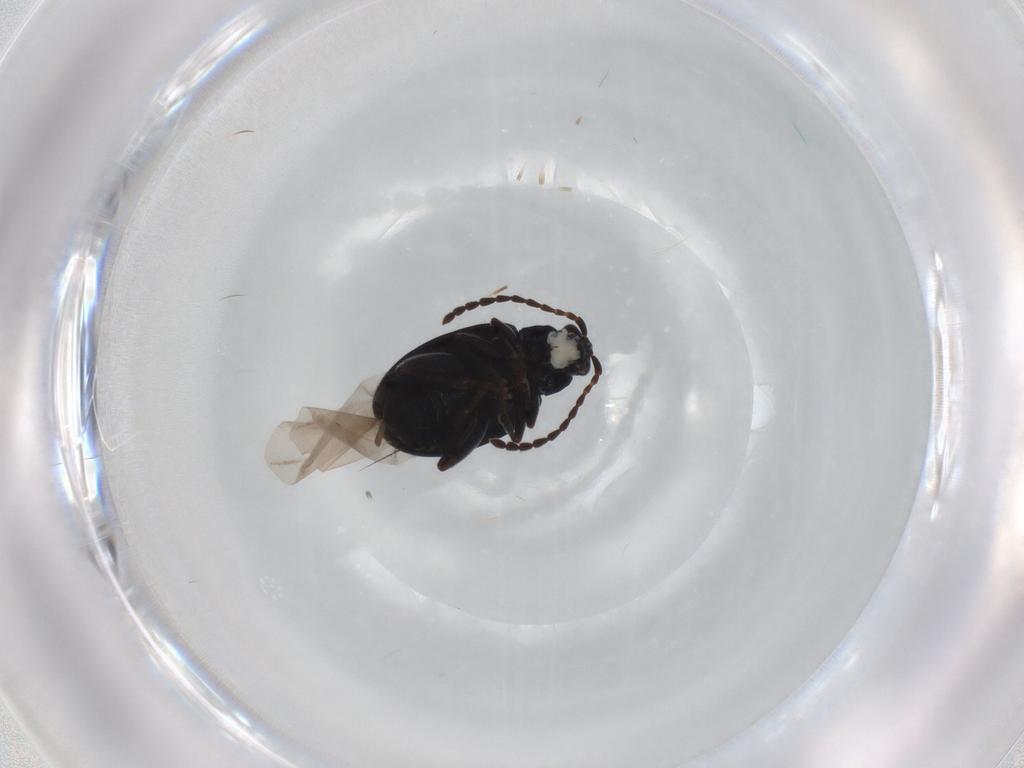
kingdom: Animalia
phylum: Arthropoda
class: Insecta
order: Coleoptera
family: Chrysomelidae
